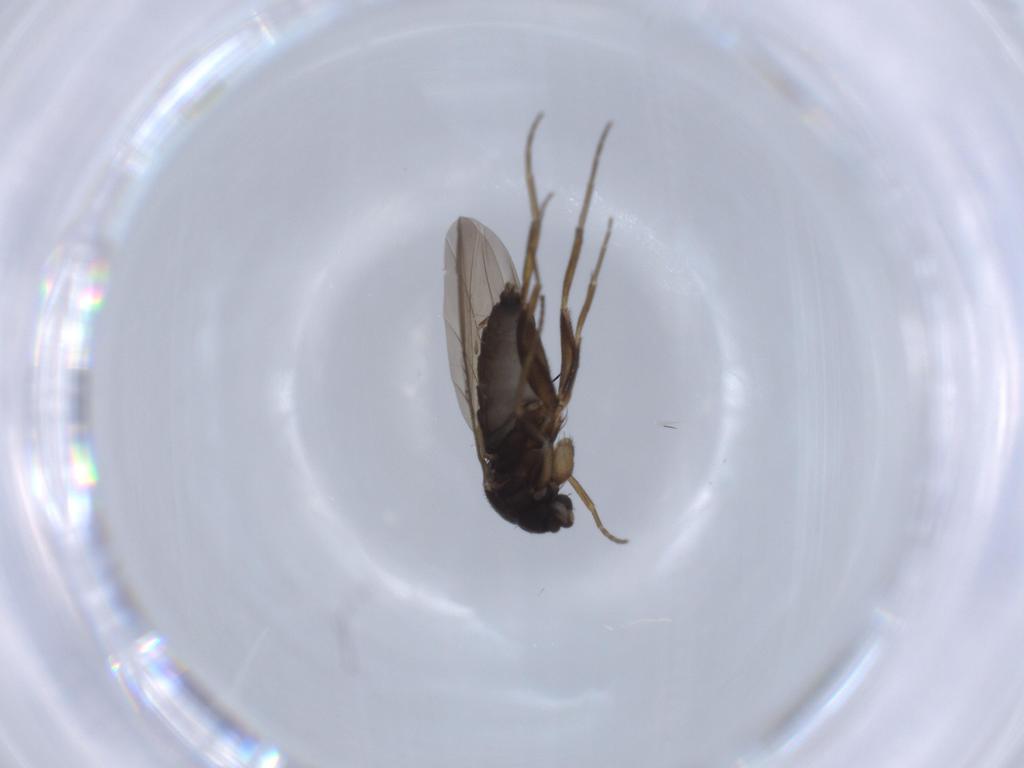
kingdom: Animalia
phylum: Arthropoda
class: Insecta
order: Diptera
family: Phoridae
